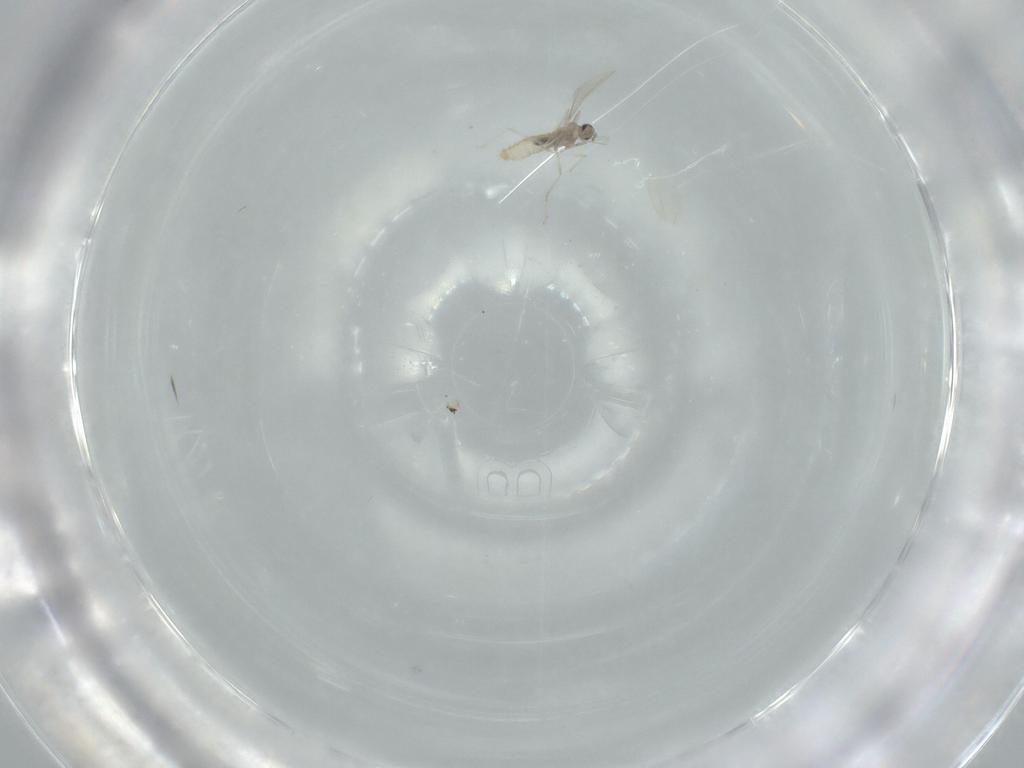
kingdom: Animalia
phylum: Arthropoda
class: Insecta
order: Diptera
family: Cecidomyiidae
